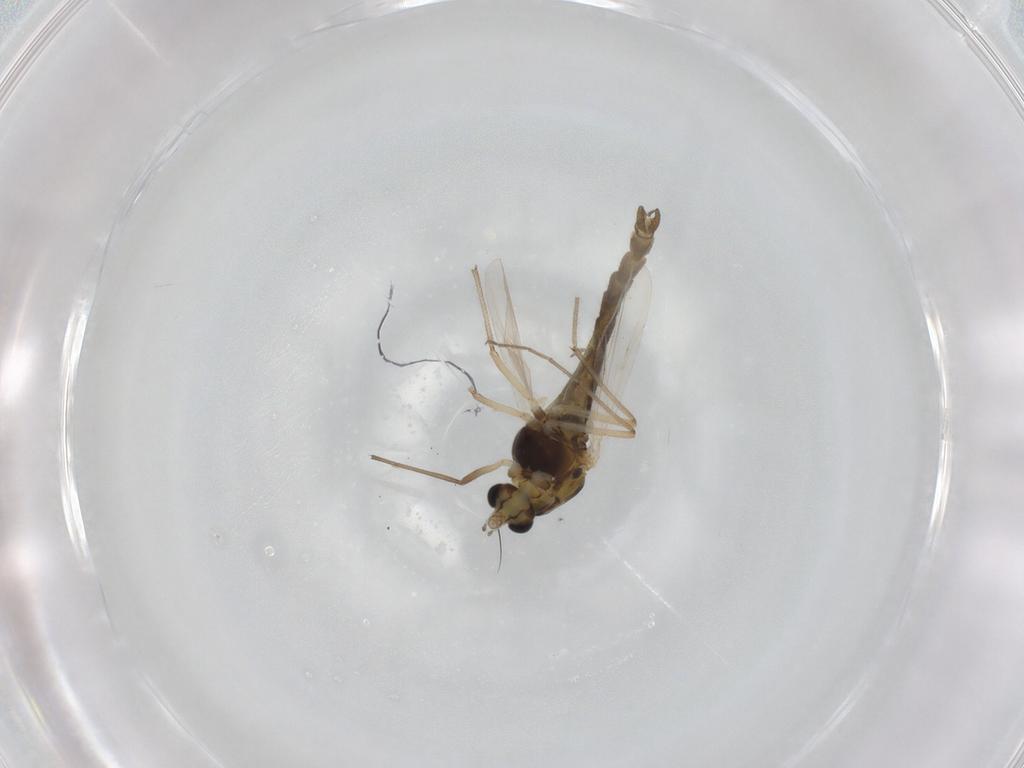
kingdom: Animalia
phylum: Arthropoda
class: Insecta
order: Diptera
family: Chironomidae
